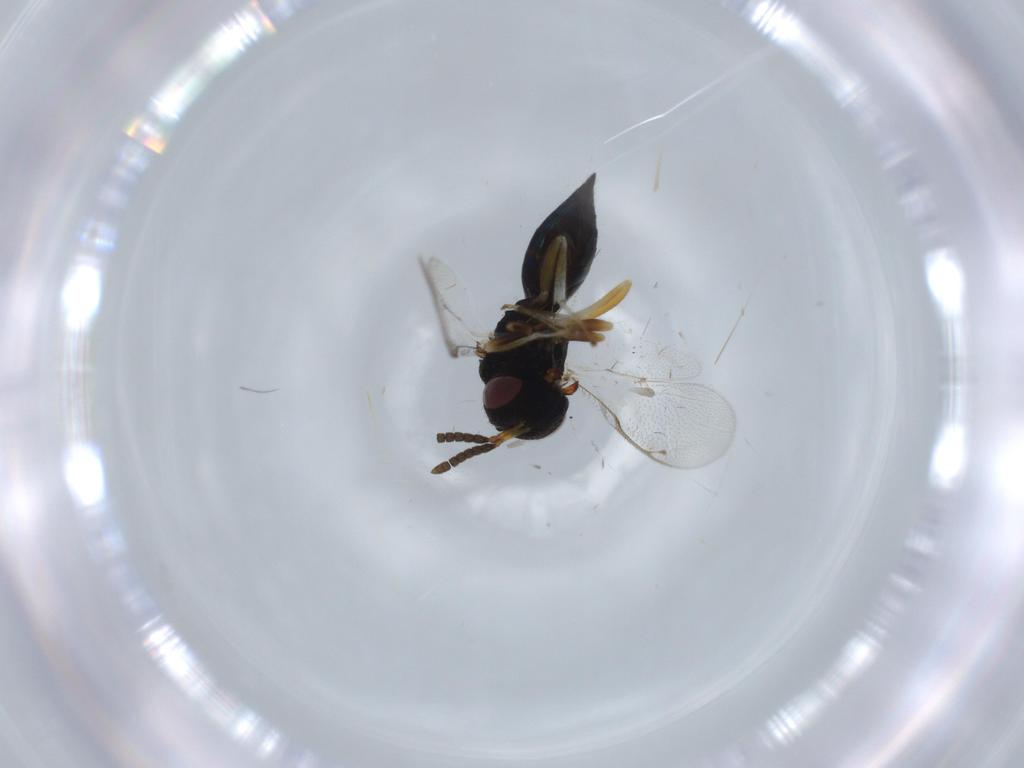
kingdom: Animalia
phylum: Arthropoda
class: Insecta
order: Hymenoptera
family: Pteromalidae
